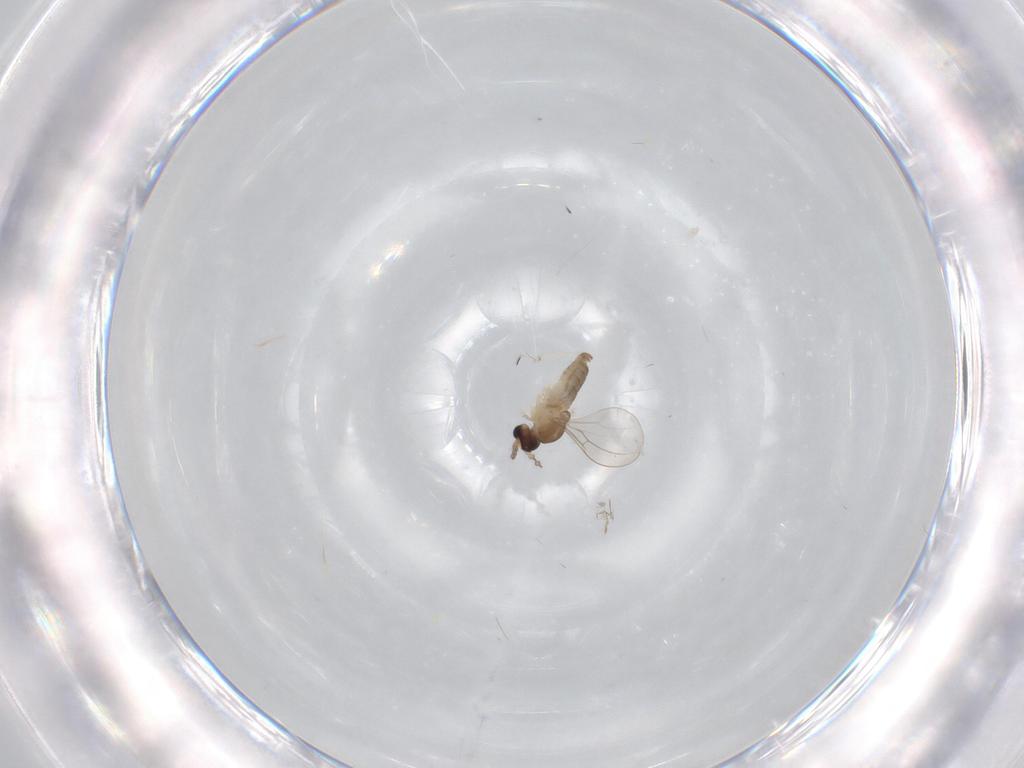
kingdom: Animalia
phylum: Arthropoda
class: Insecta
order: Diptera
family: Cecidomyiidae
